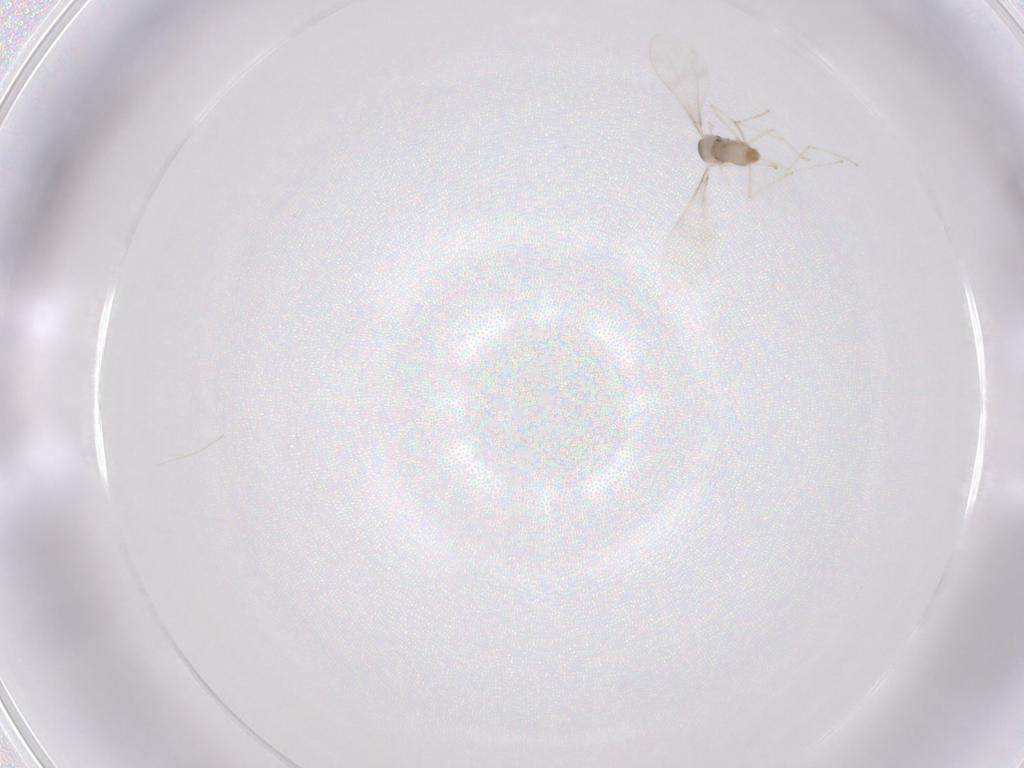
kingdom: Animalia
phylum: Arthropoda
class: Insecta
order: Diptera
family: Cecidomyiidae
